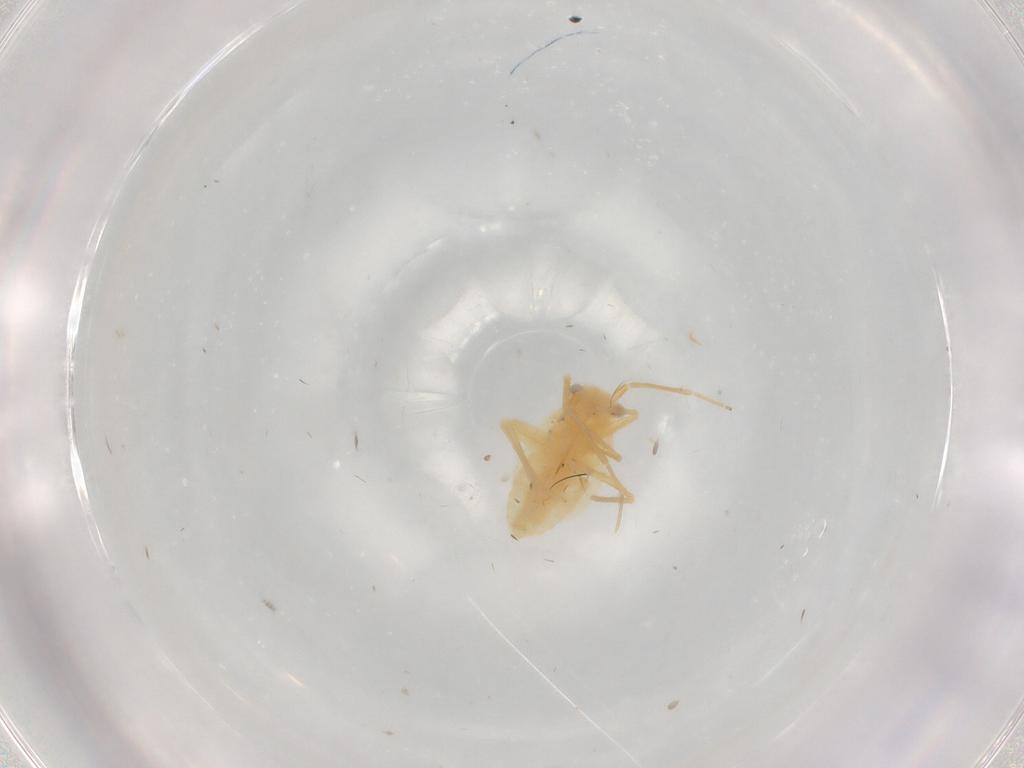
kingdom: Animalia
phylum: Arthropoda
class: Insecta
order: Hemiptera
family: Miridae
